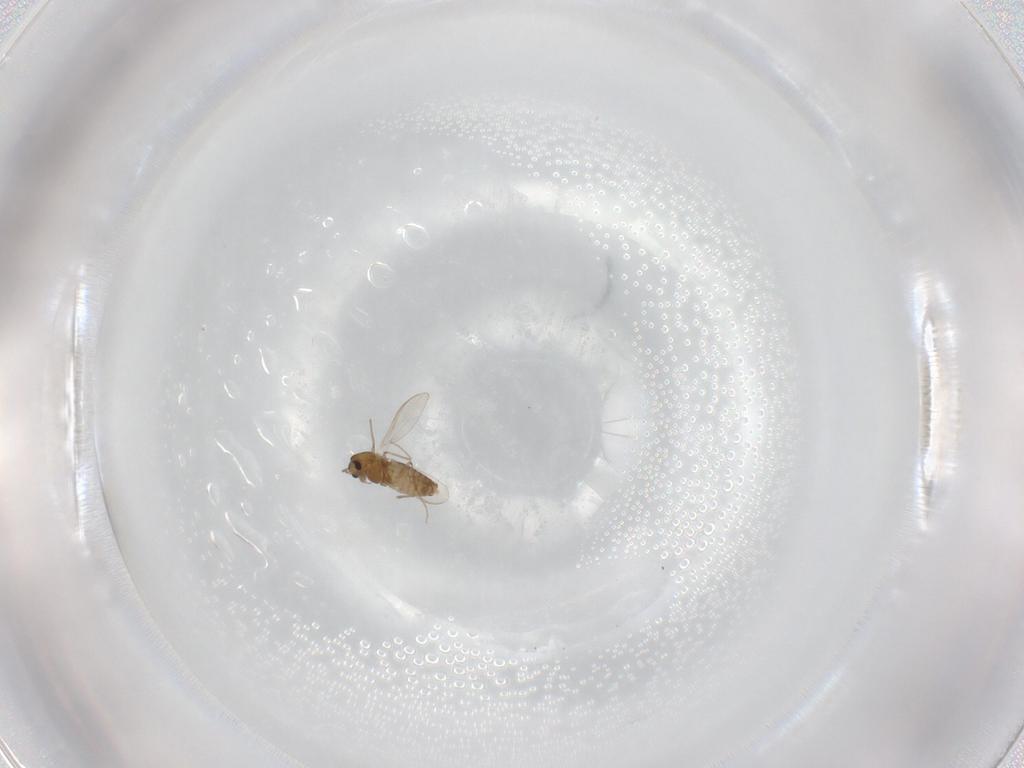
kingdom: Animalia
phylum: Arthropoda
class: Insecta
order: Diptera
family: Chironomidae
